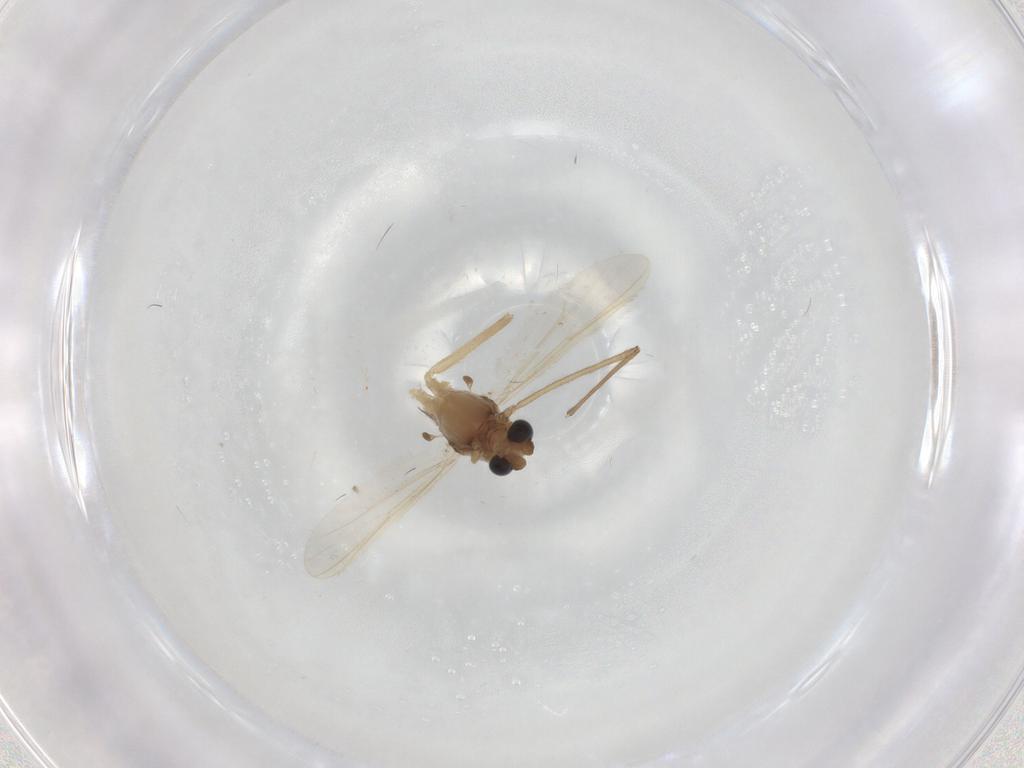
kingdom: Animalia
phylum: Arthropoda
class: Insecta
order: Diptera
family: Chironomidae
